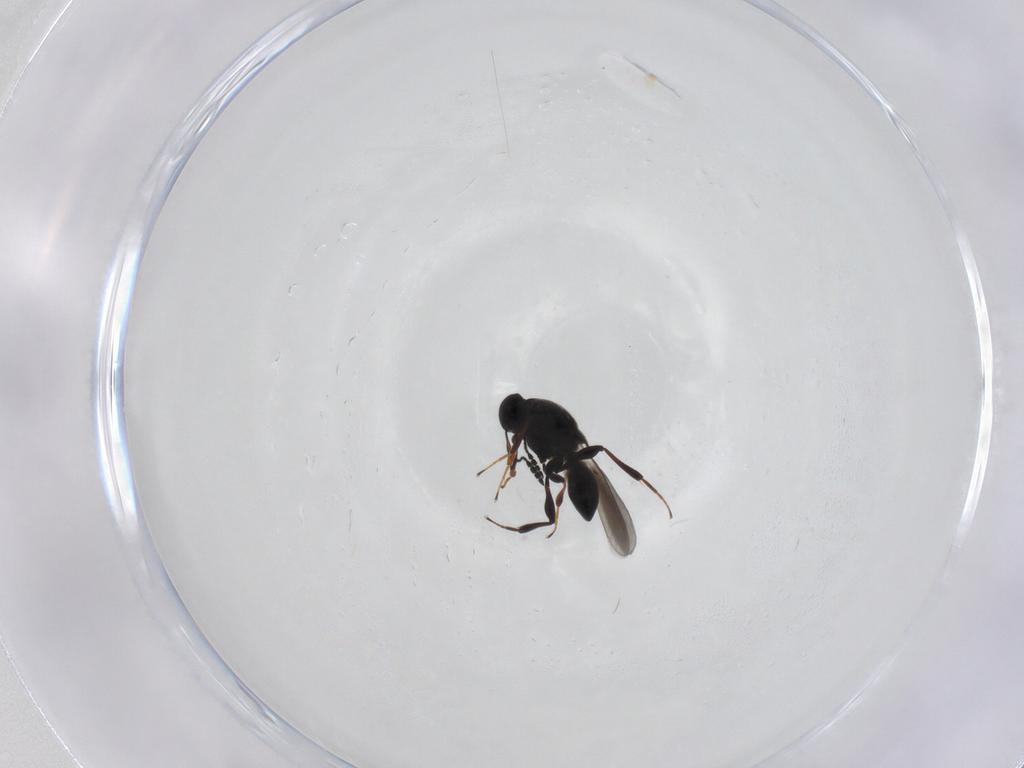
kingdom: Animalia
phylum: Arthropoda
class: Insecta
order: Hymenoptera
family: Platygastridae
